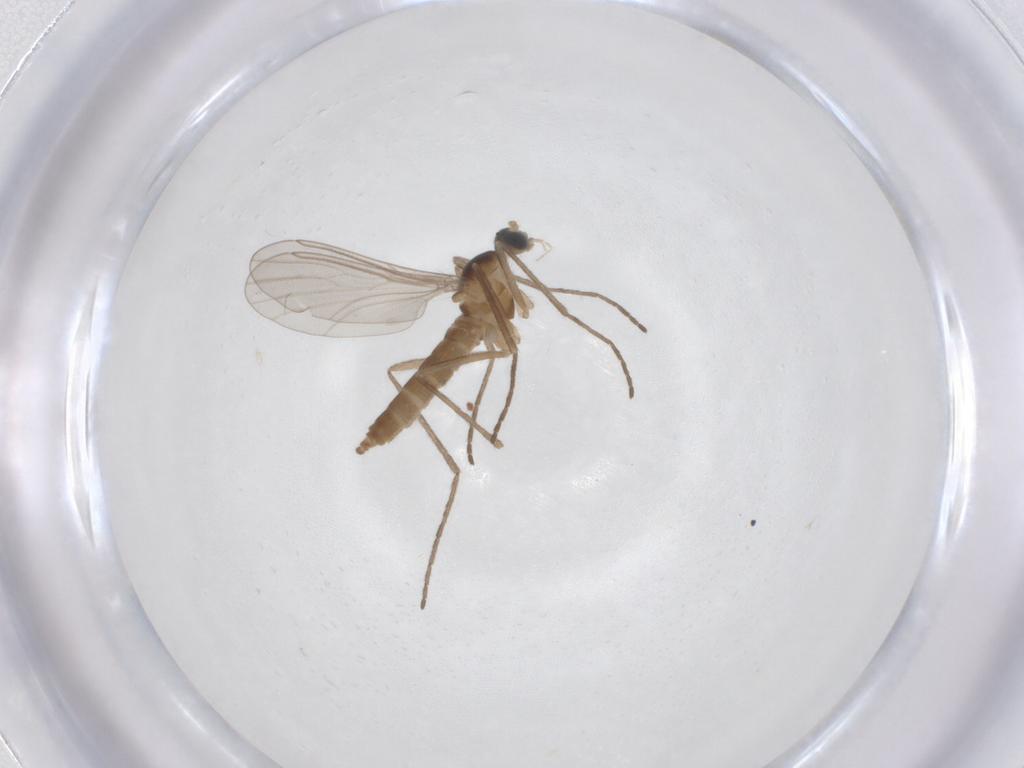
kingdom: Animalia
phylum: Arthropoda
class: Insecta
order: Diptera
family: Cecidomyiidae
